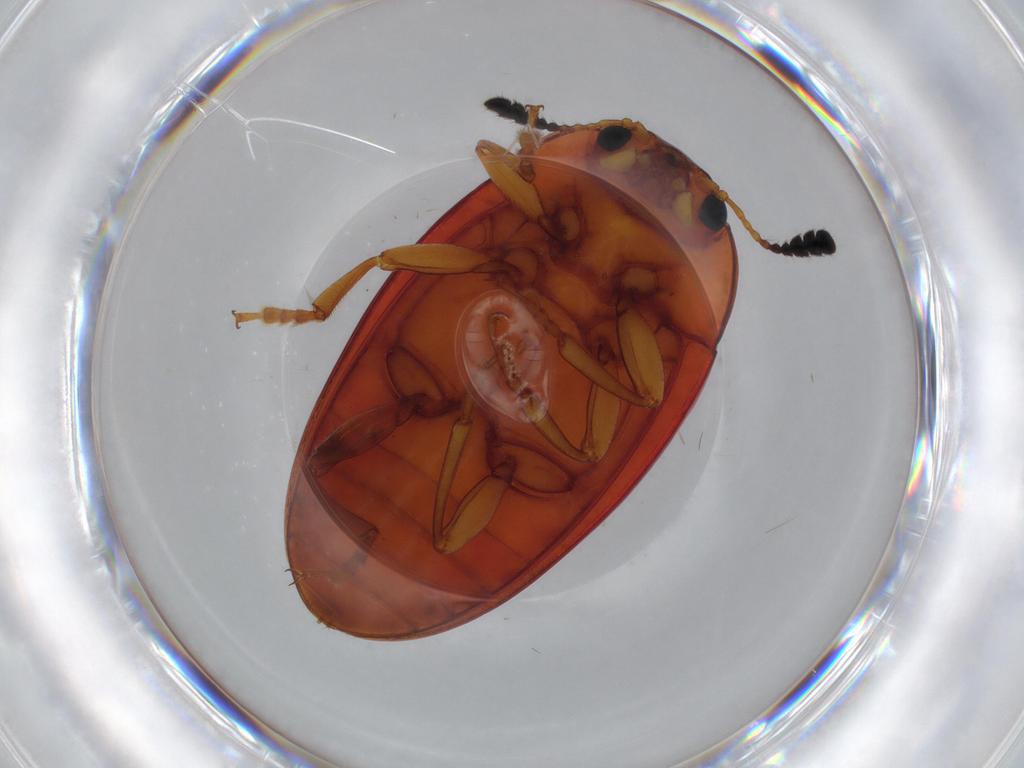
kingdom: Animalia
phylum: Arthropoda
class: Insecta
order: Coleoptera
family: Erotylidae
